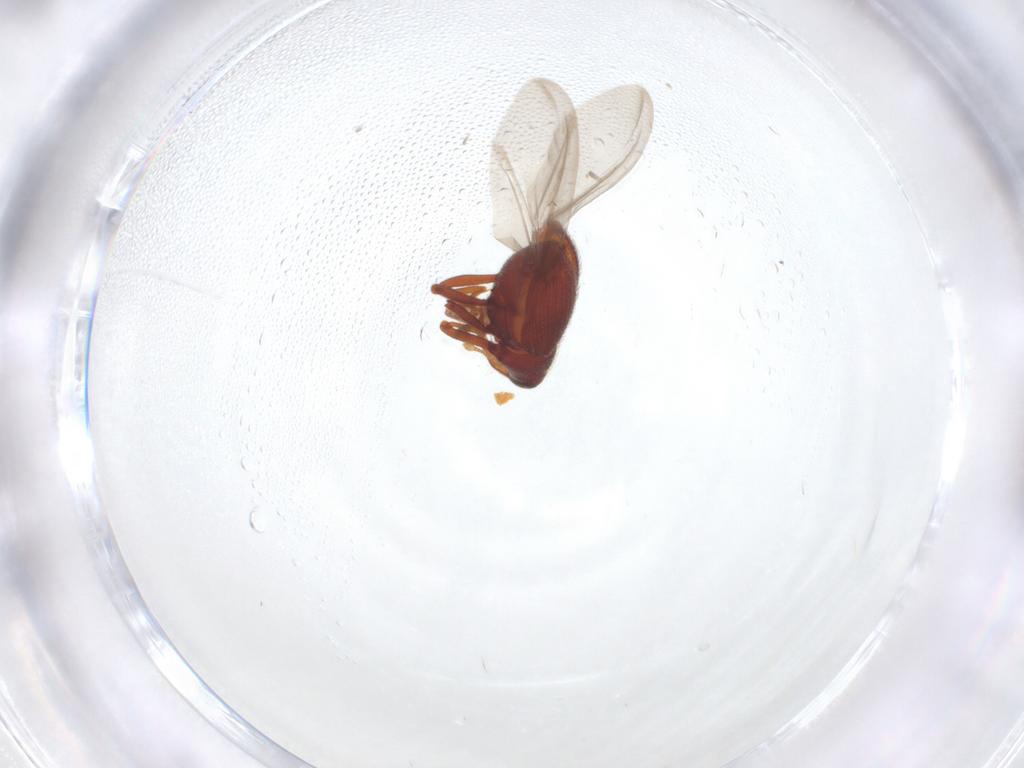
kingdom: Animalia
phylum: Arthropoda
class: Insecta
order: Coleoptera
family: Curculionidae
